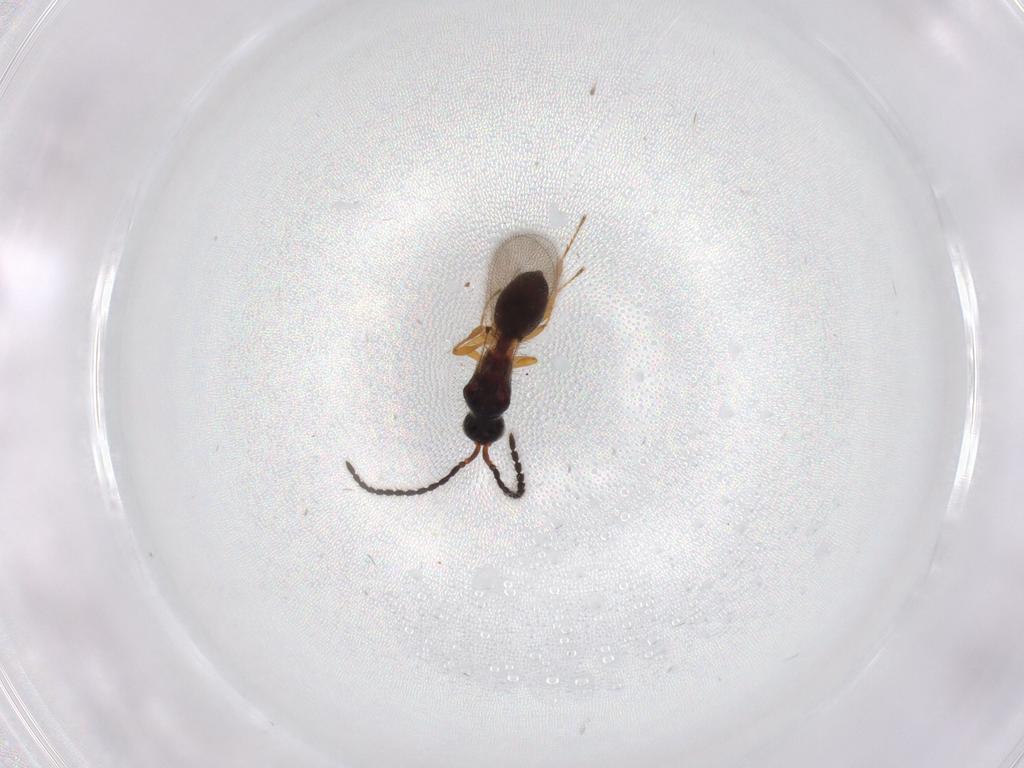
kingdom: Animalia
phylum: Arthropoda
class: Insecta
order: Hymenoptera
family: Diapriidae
